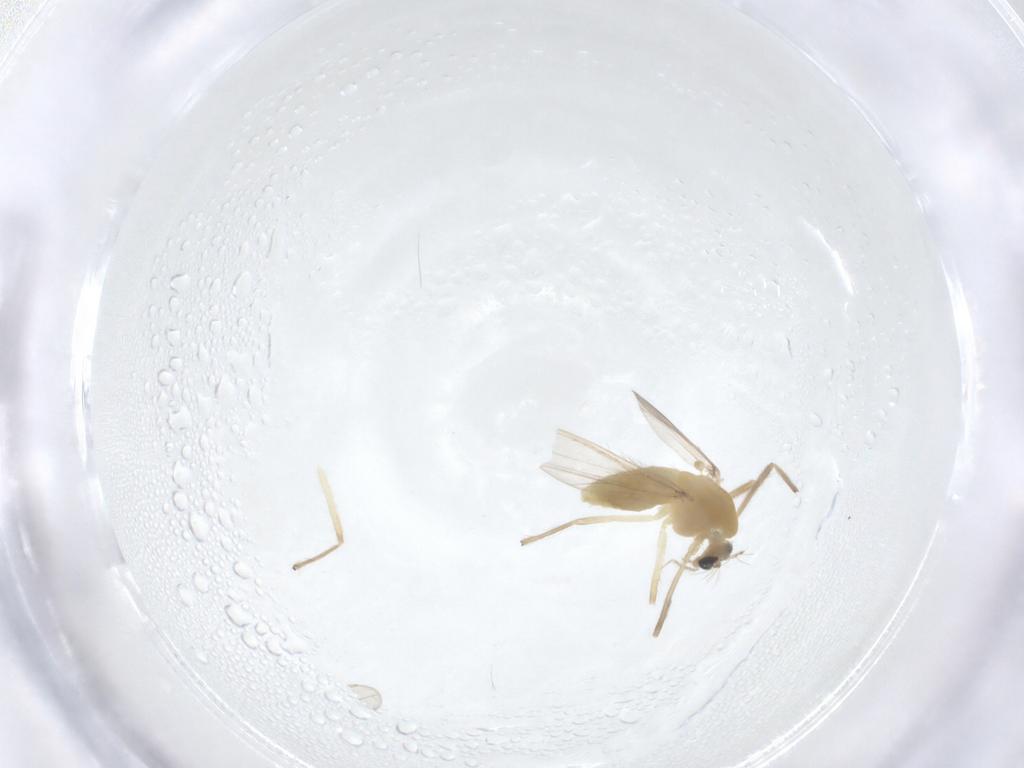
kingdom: Animalia
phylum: Arthropoda
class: Insecta
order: Diptera
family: Chironomidae
